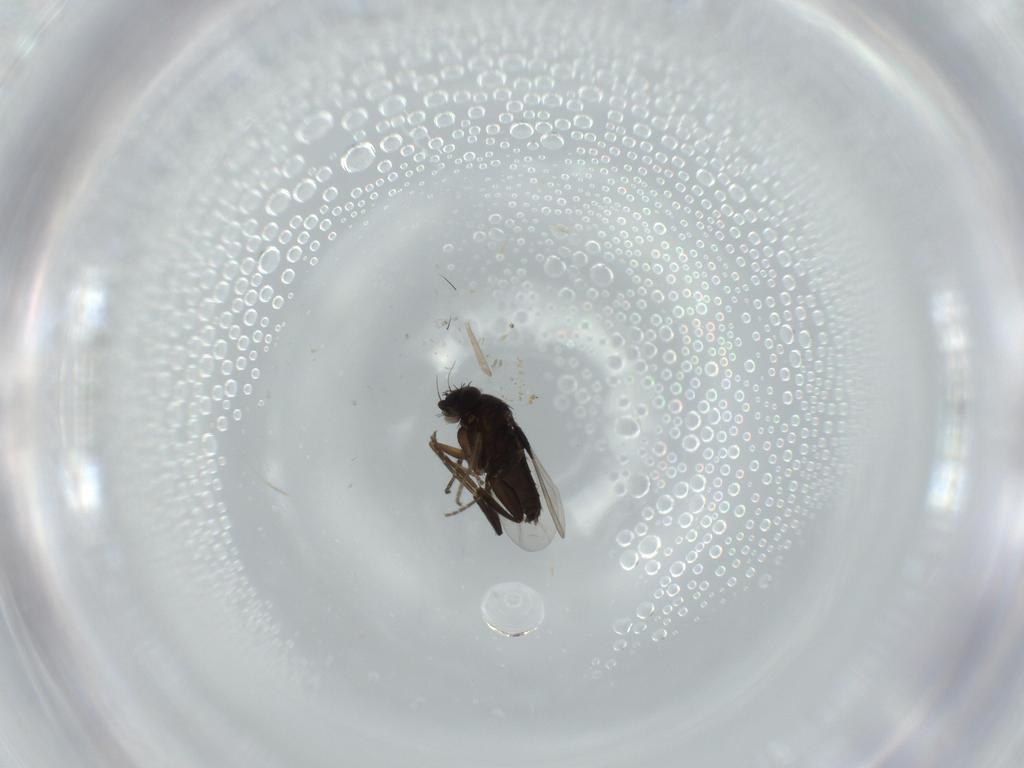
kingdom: Animalia
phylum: Arthropoda
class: Insecta
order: Diptera
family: Phoridae
